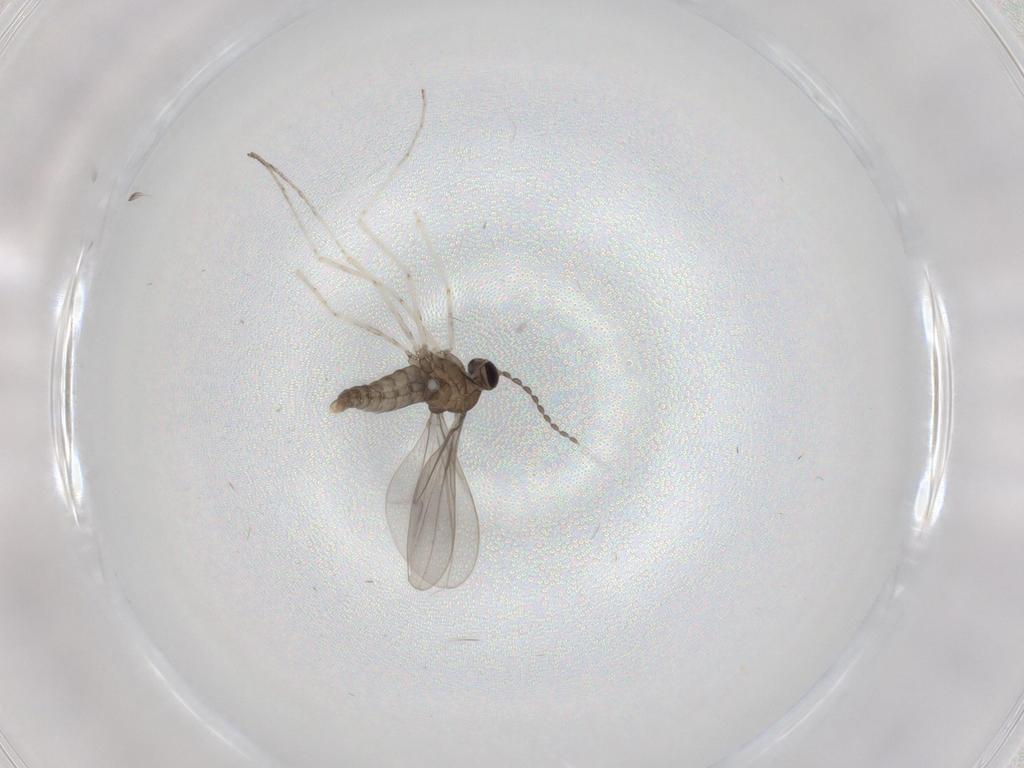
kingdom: Animalia
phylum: Arthropoda
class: Insecta
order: Diptera
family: Cecidomyiidae
